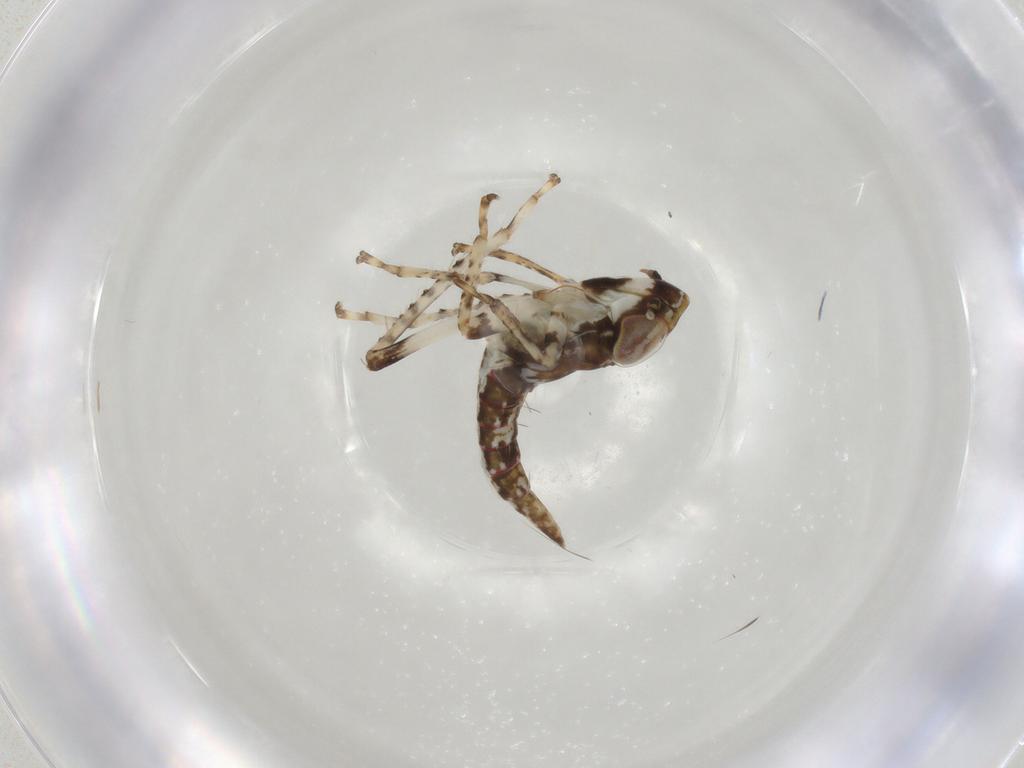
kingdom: Animalia
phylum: Arthropoda
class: Insecta
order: Hemiptera
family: Cicadellidae
